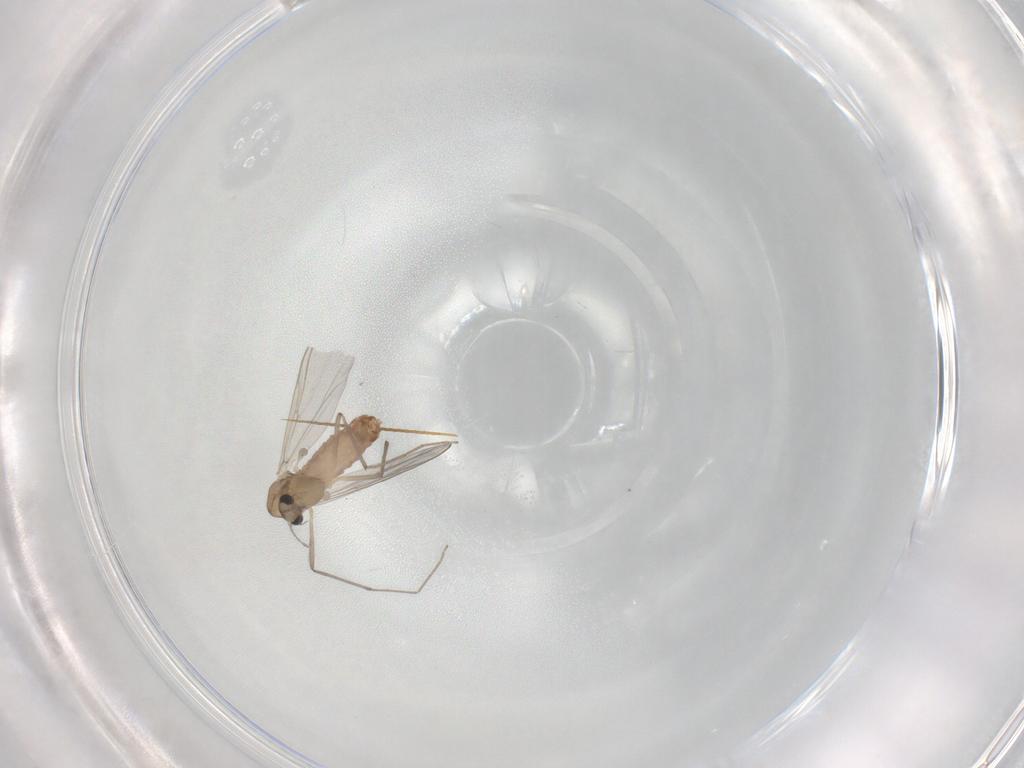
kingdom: Animalia
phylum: Arthropoda
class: Insecta
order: Diptera
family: Chironomidae
